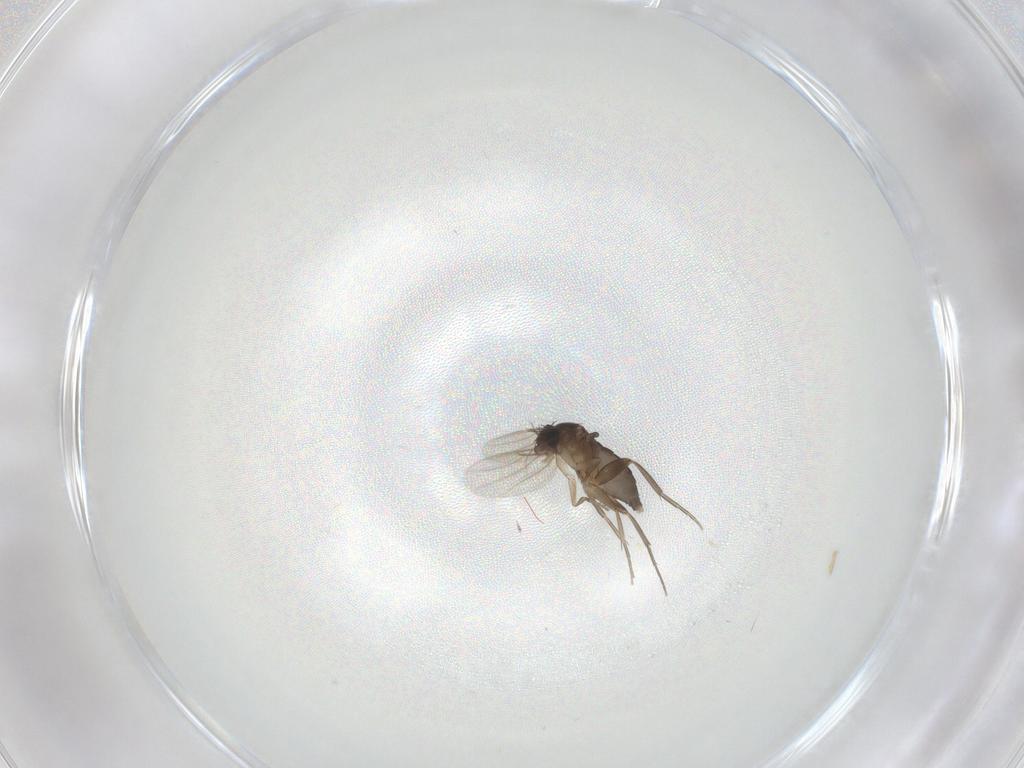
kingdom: Animalia
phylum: Arthropoda
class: Insecta
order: Diptera
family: Phoridae
